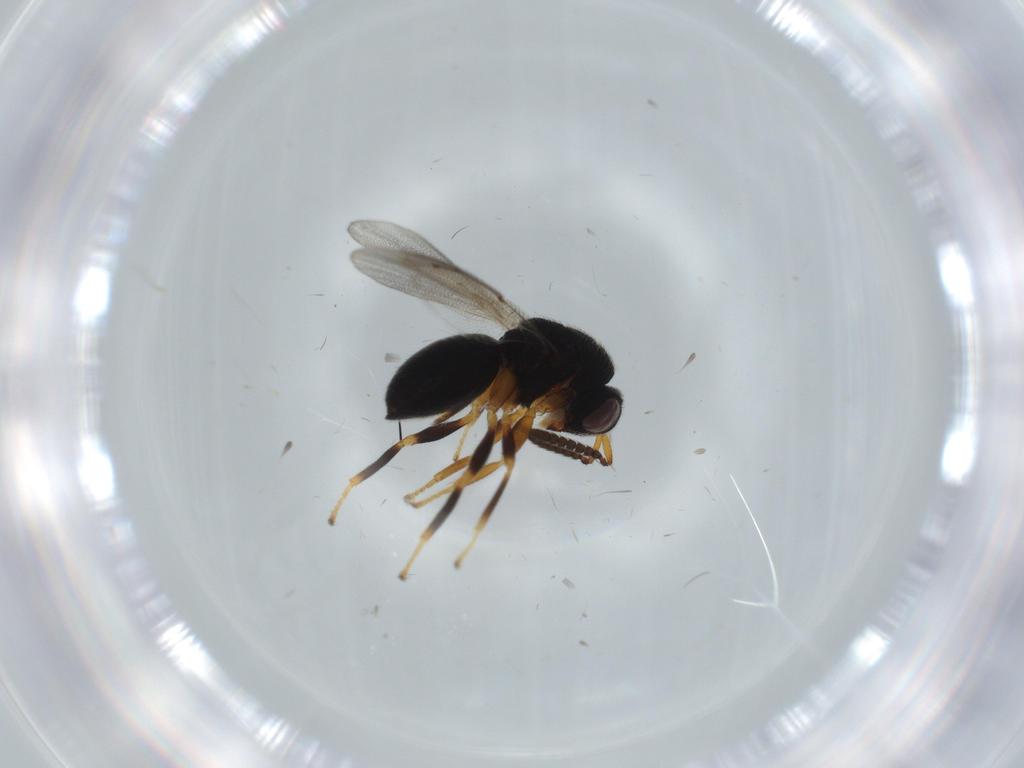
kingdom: Animalia
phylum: Arthropoda
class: Insecta
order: Hymenoptera
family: Eurytomidae
